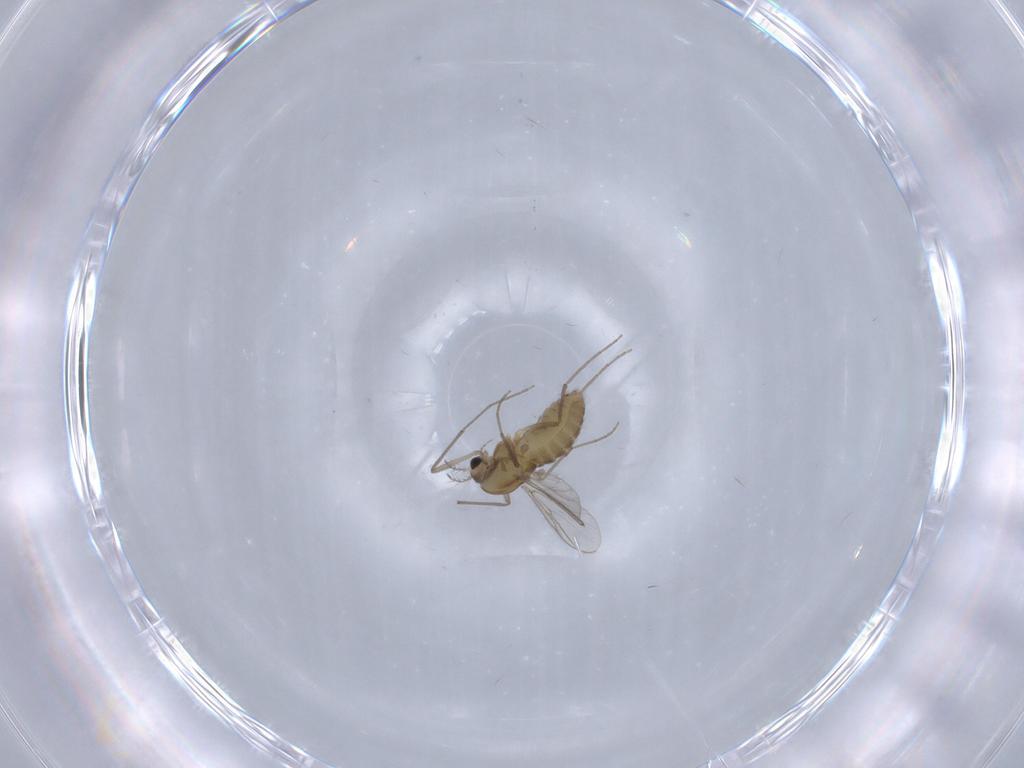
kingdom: Animalia
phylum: Arthropoda
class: Insecta
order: Diptera
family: Chironomidae
